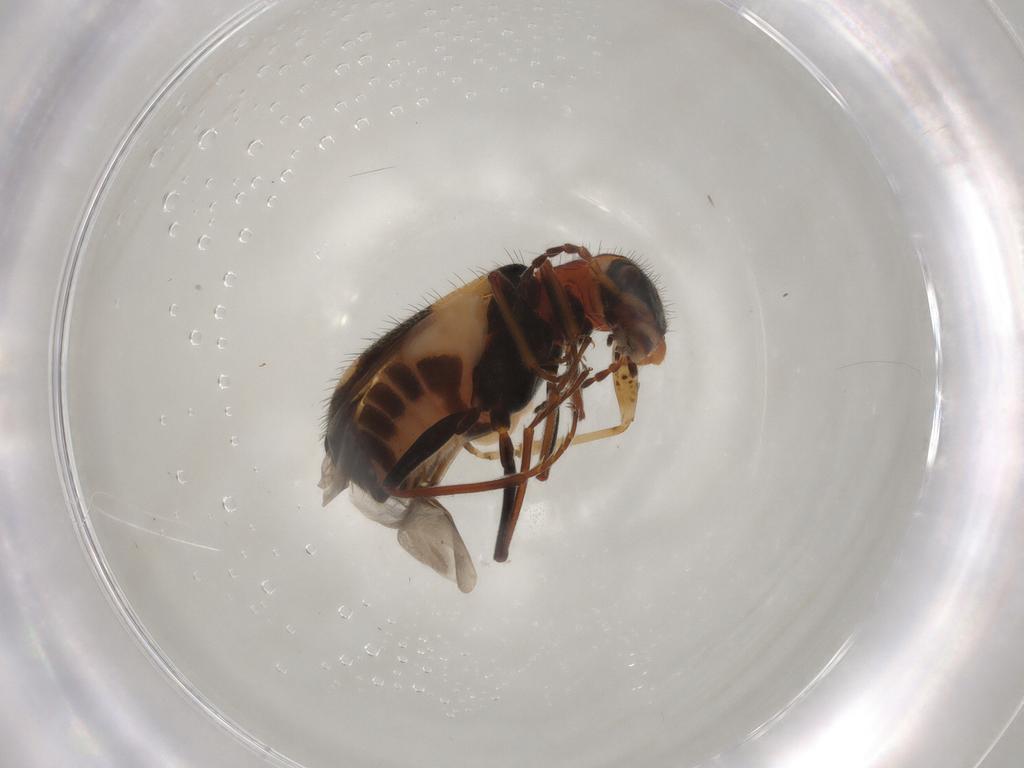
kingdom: Animalia
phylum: Arthropoda
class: Insecta
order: Coleoptera
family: Melyridae
